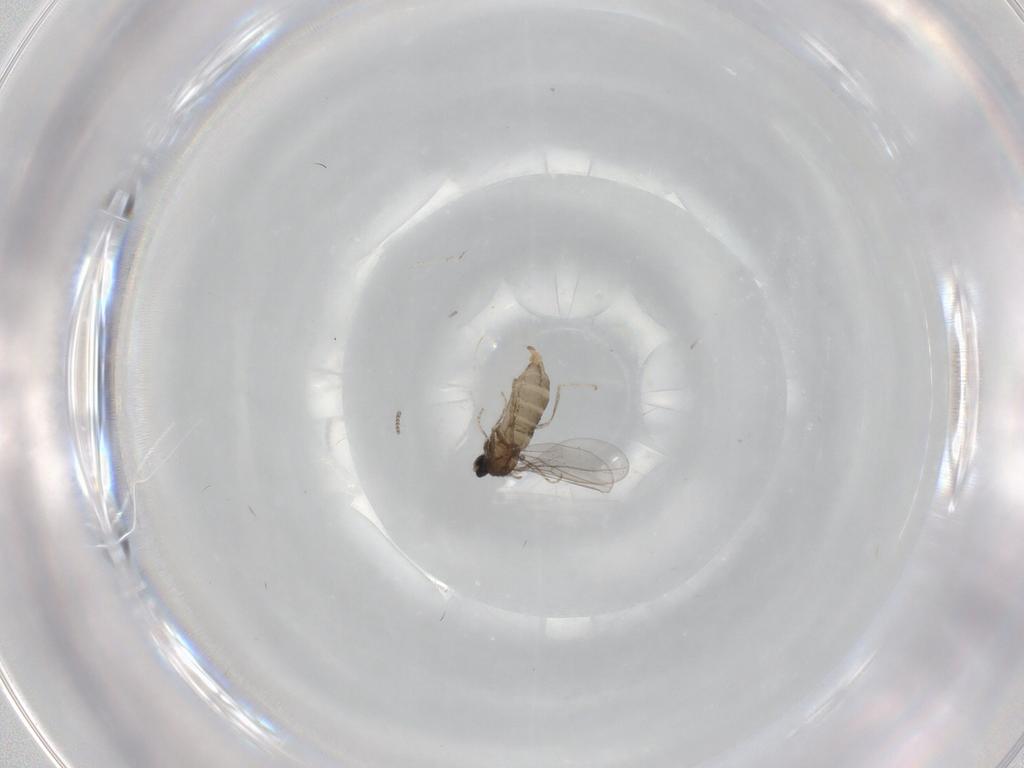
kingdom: Animalia
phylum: Arthropoda
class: Insecta
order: Diptera
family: Cecidomyiidae
